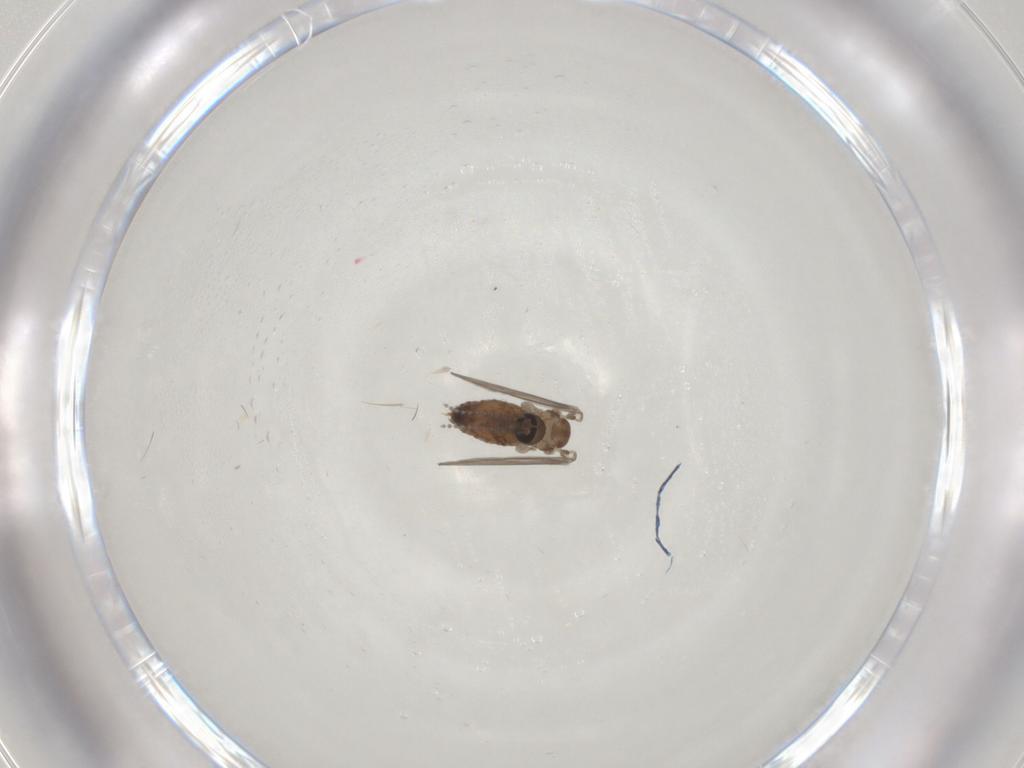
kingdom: Animalia
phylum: Arthropoda
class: Insecta
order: Diptera
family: Psychodidae
